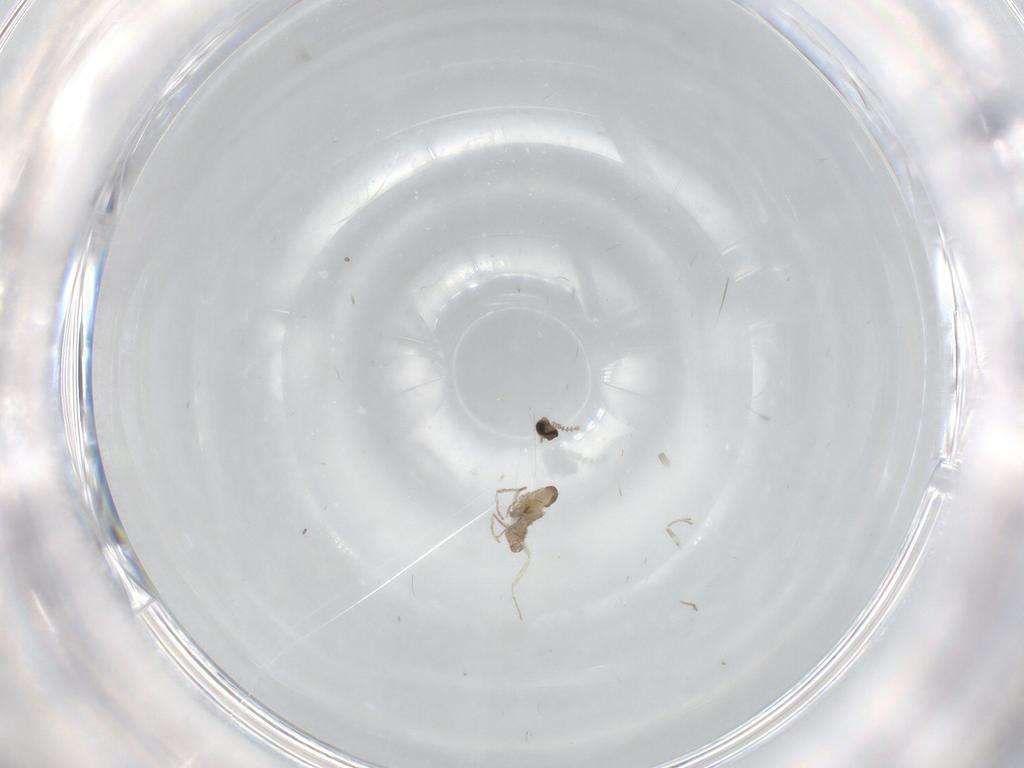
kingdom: Animalia
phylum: Arthropoda
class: Insecta
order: Diptera
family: Cecidomyiidae
